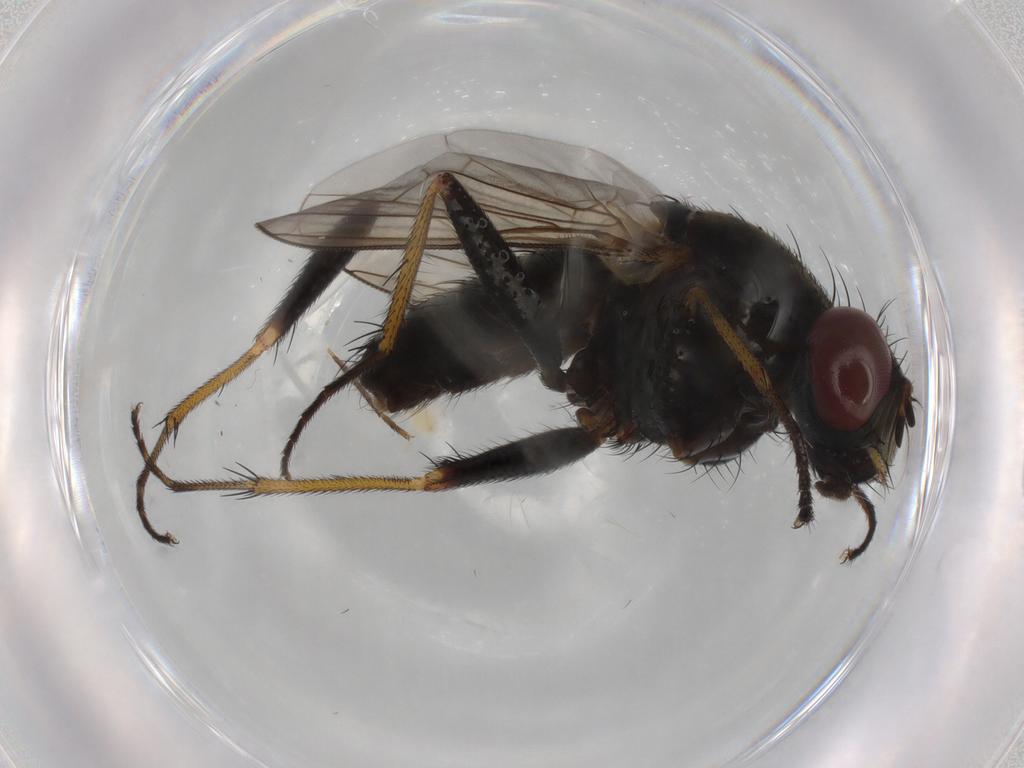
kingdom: Animalia
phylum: Arthropoda
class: Insecta
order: Diptera
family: Muscidae
